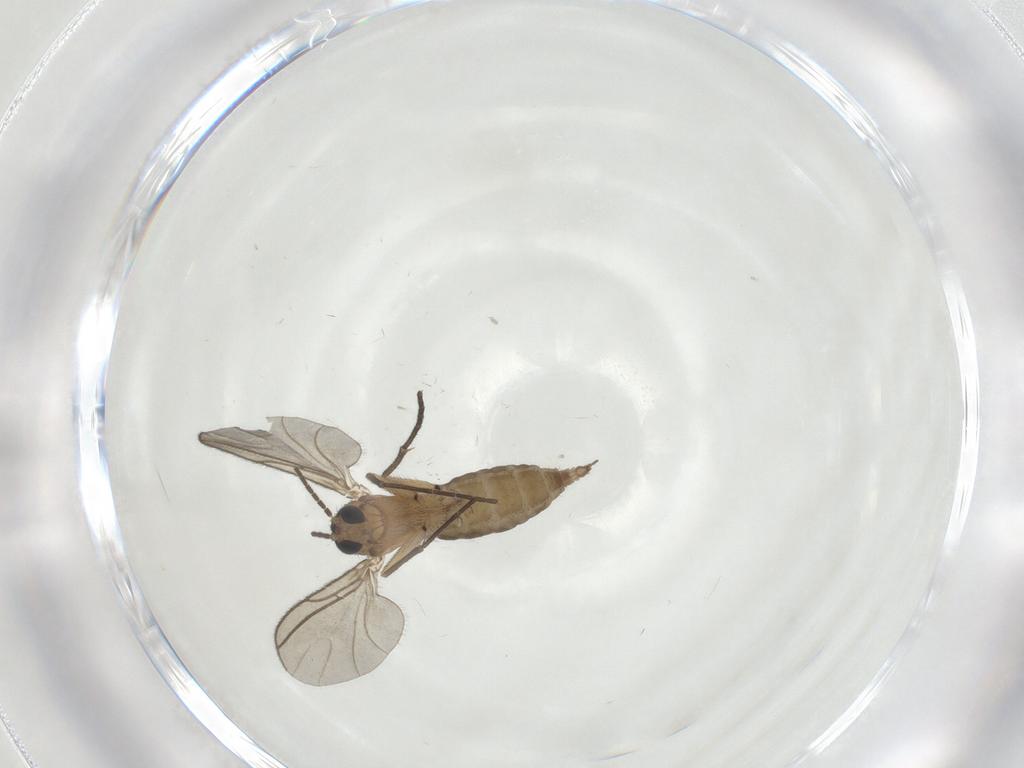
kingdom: Animalia
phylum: Arthropoda
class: Insecta
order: Diptera
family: Sciaridae
